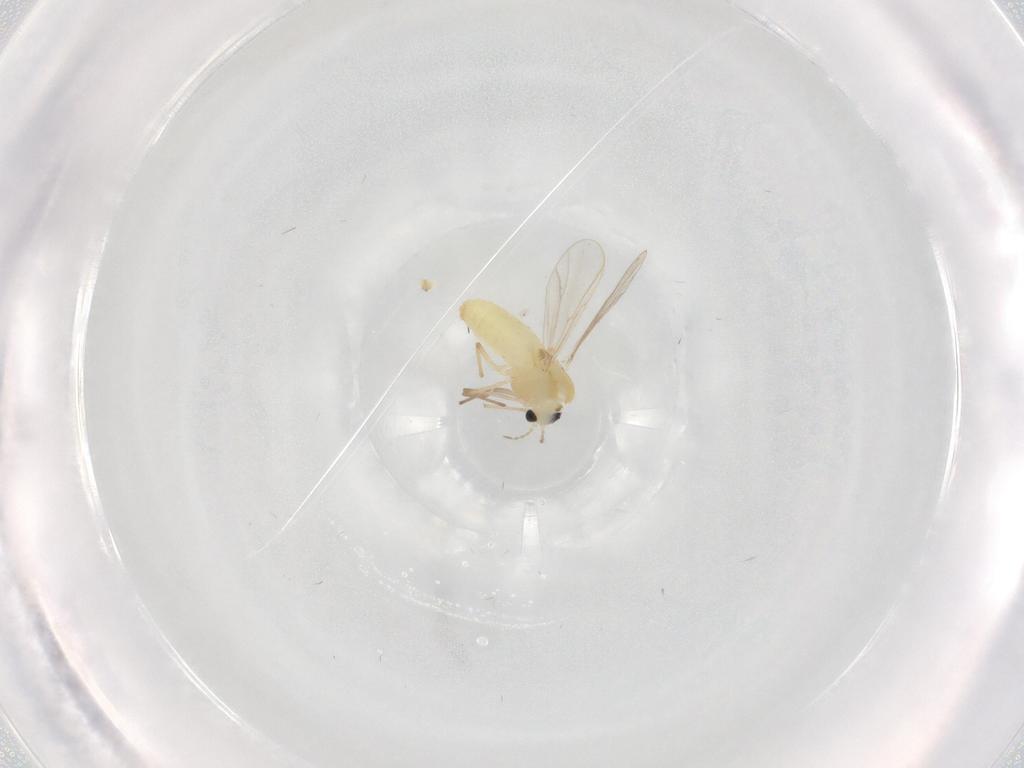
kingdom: Animalia
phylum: Arthropoda
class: Insecta
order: Diptera
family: Chironomidae
